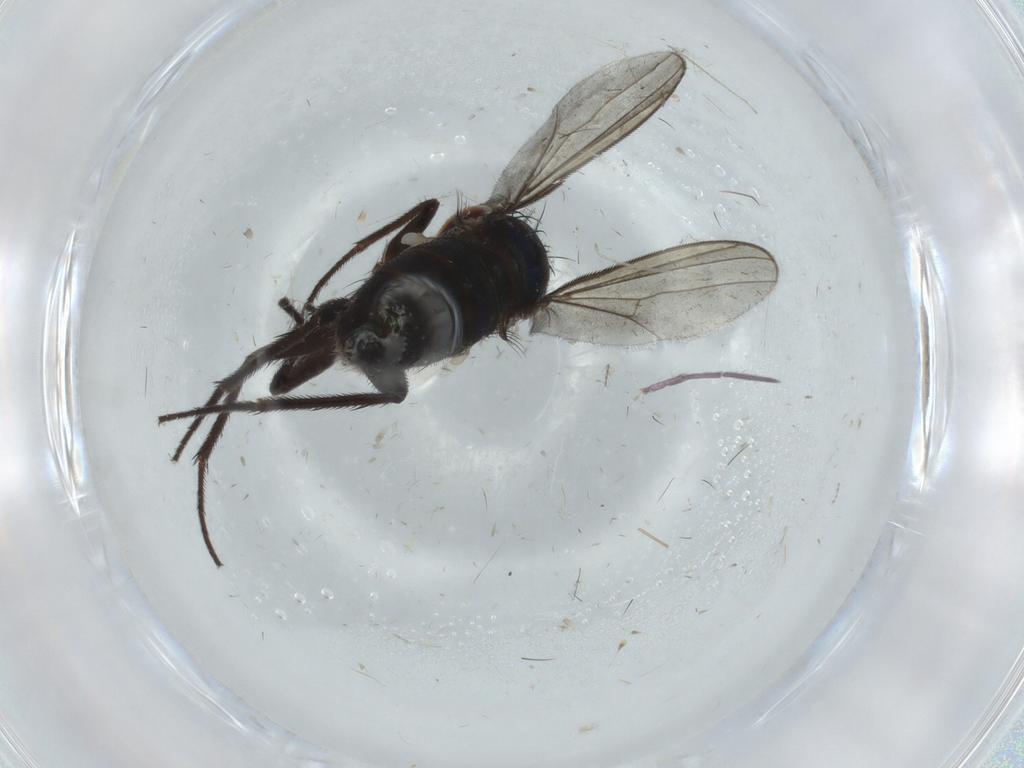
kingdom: Animalia
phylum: Arthropoda
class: Insecta
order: Diptera
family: Dolichopodidae
